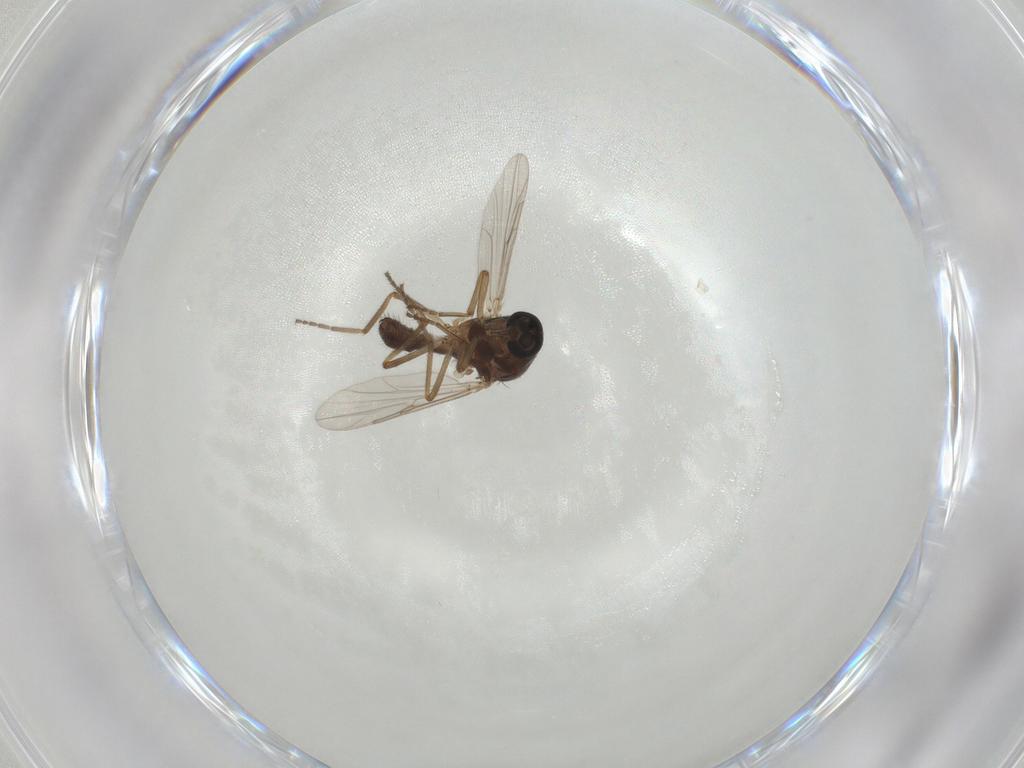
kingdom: Animalia
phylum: Arthropoda
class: Insecta
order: Diptera
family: Ceratopogonidae
